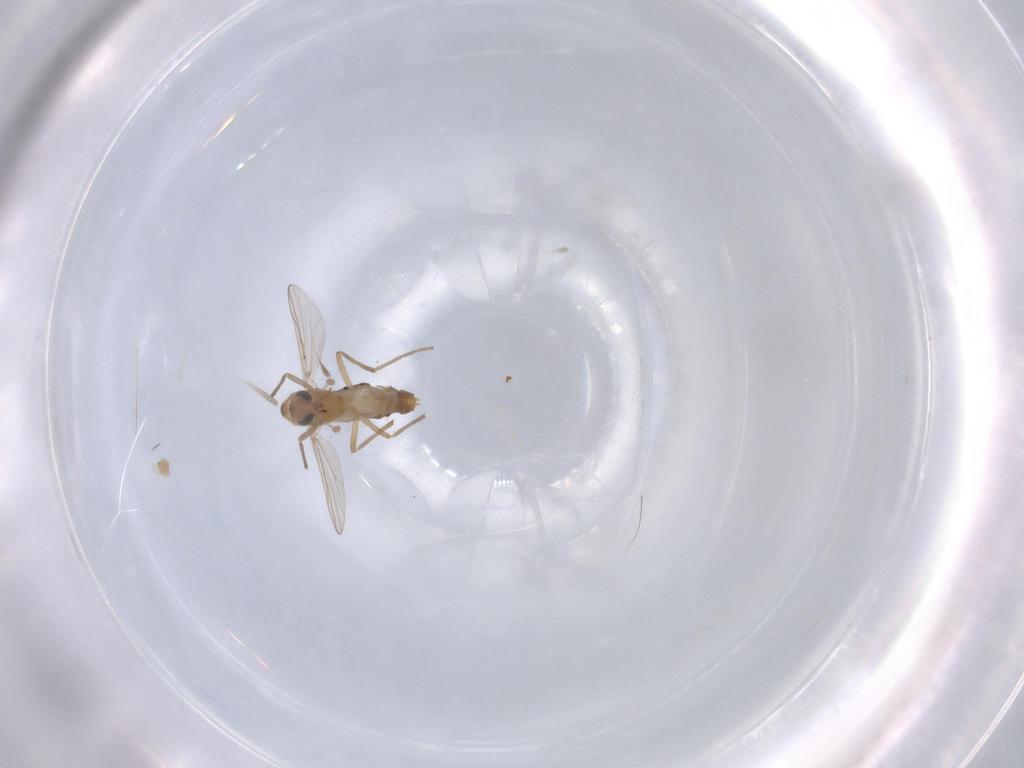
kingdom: Animalia
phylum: Arthropoda
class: Insecta
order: Diptera
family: Chironomidae
